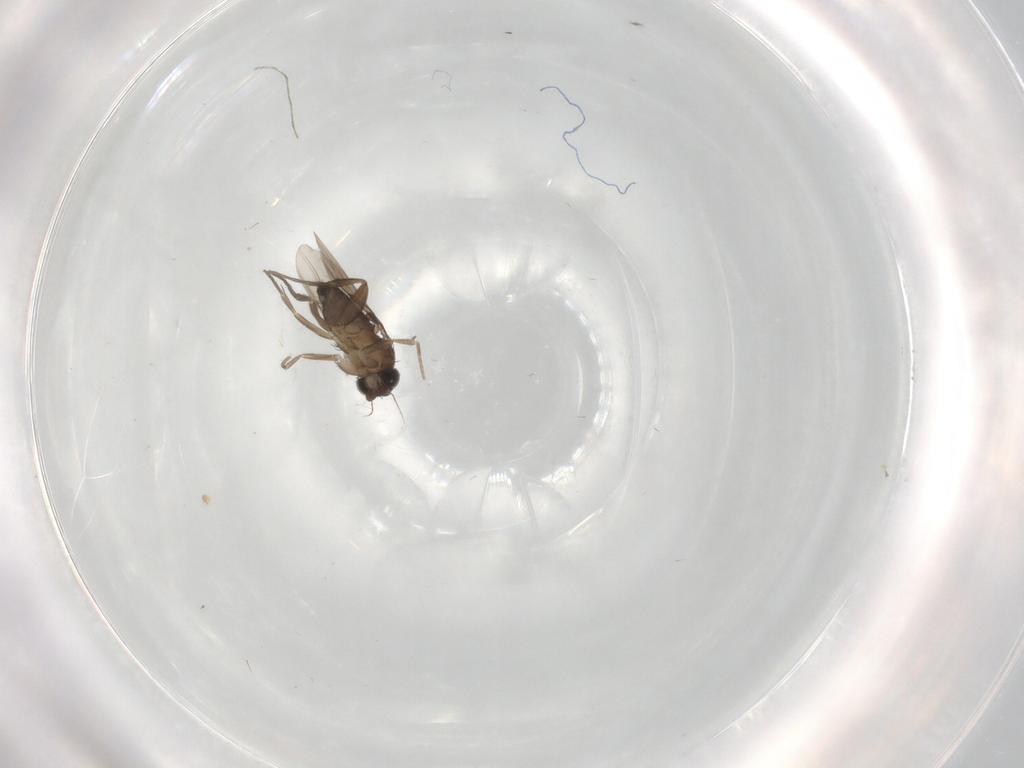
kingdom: Animalia
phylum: Arthropoda
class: Insecta
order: Diptera
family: Phoridae
